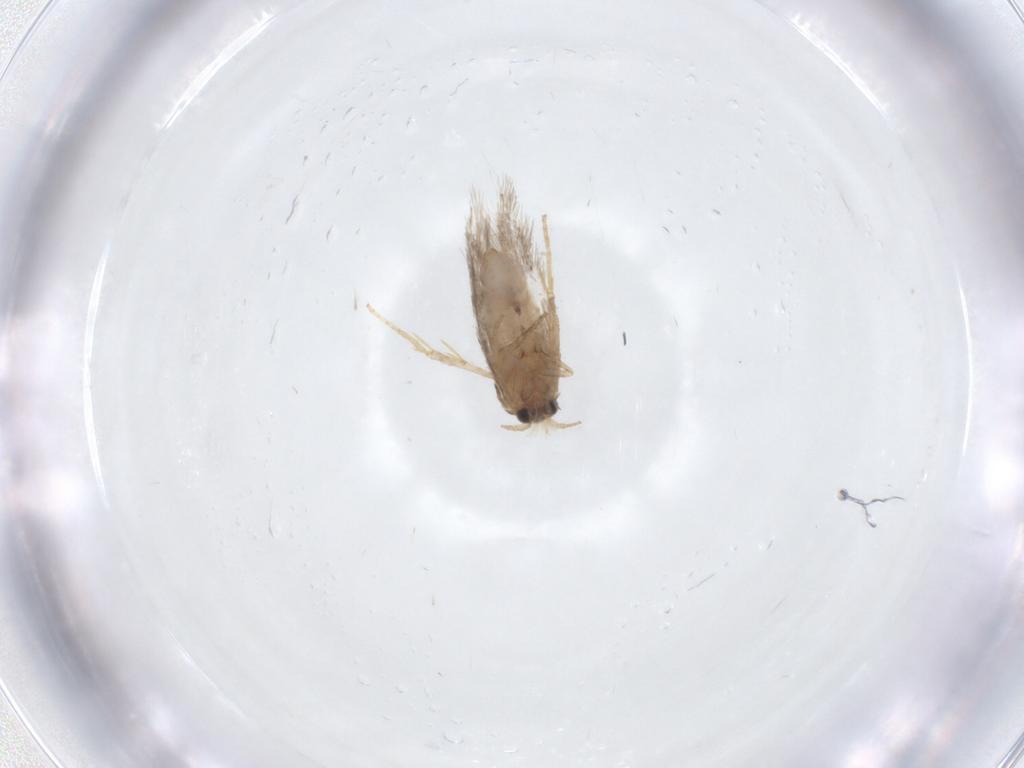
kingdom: Animalia
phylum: Arthropoda
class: Insecta
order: Lepidoptera
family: Nepticulidae
